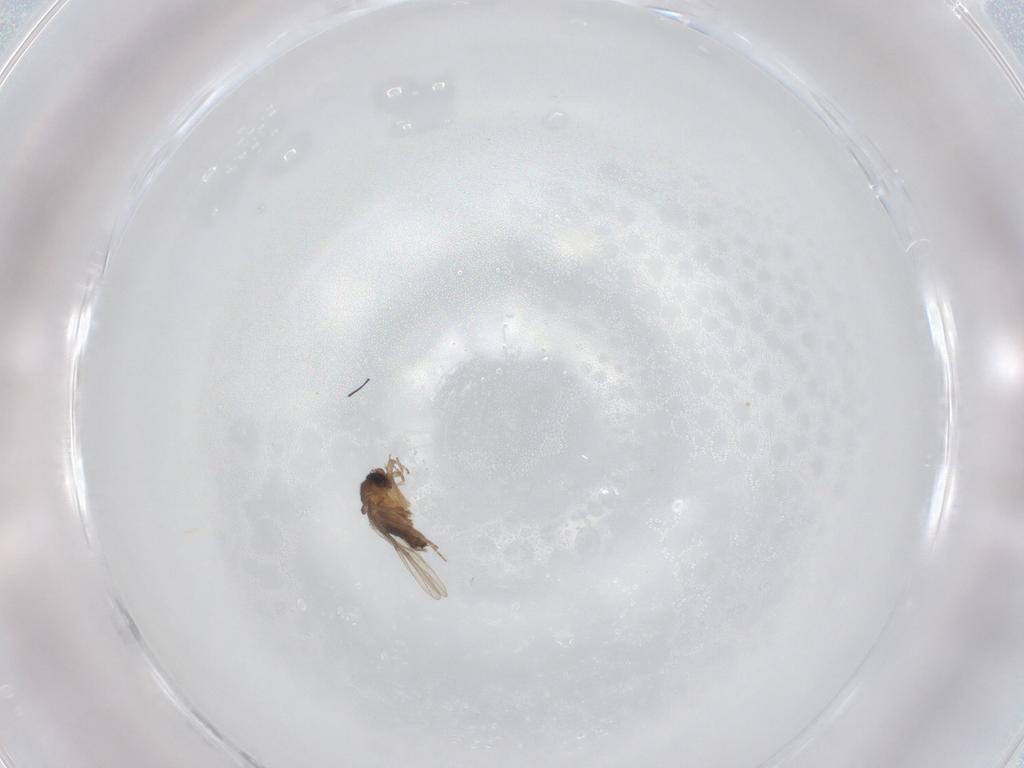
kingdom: Animalia
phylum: Arthropoda
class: Insecta
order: Diptera
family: Phoridae
